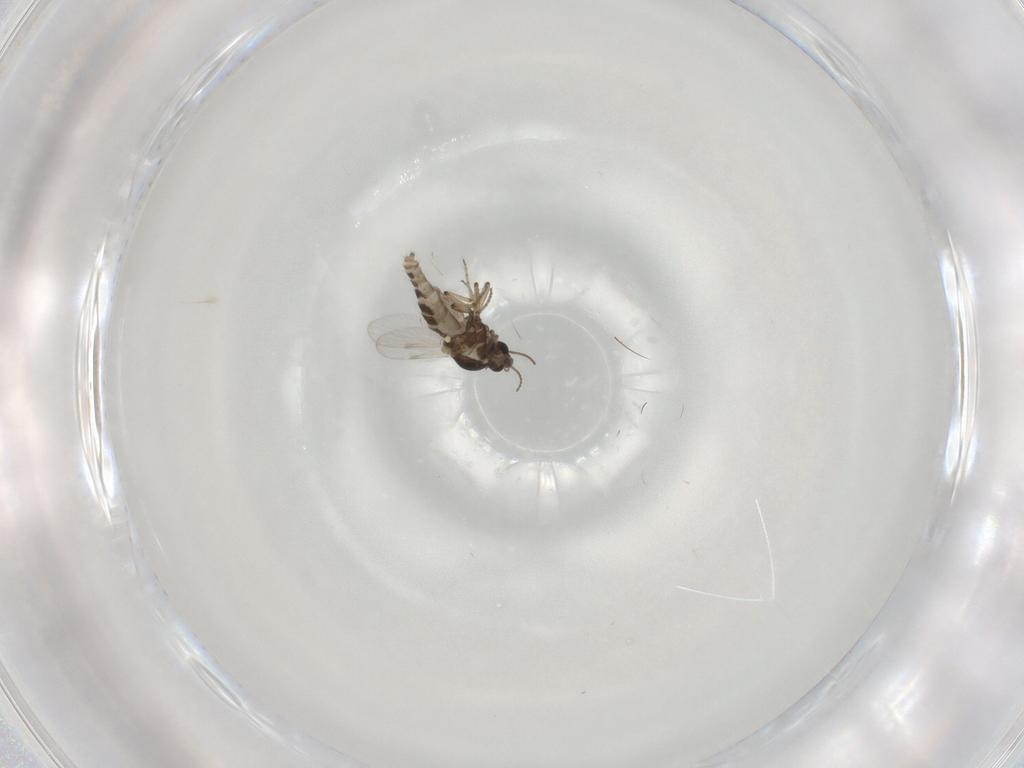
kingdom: Animalia
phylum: Arthropoda
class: Insecta
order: Diptera
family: Ceratopogonidae
